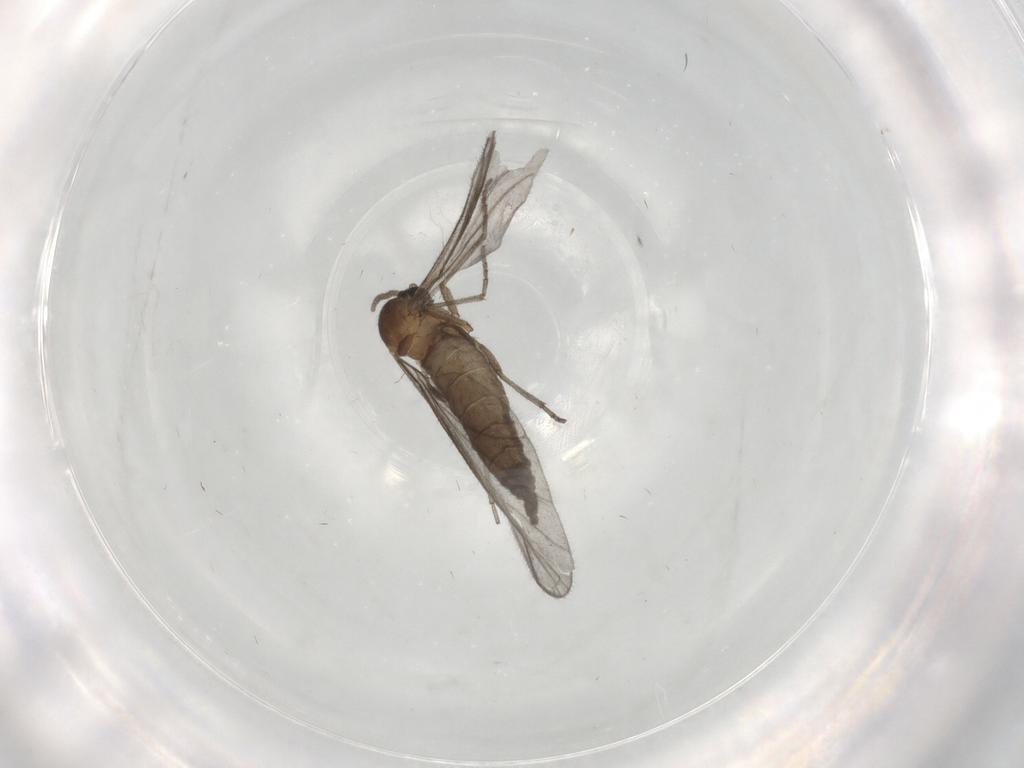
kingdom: Animalia
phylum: Arthropoda
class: Insecta
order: Diptera
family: Sciaridae
